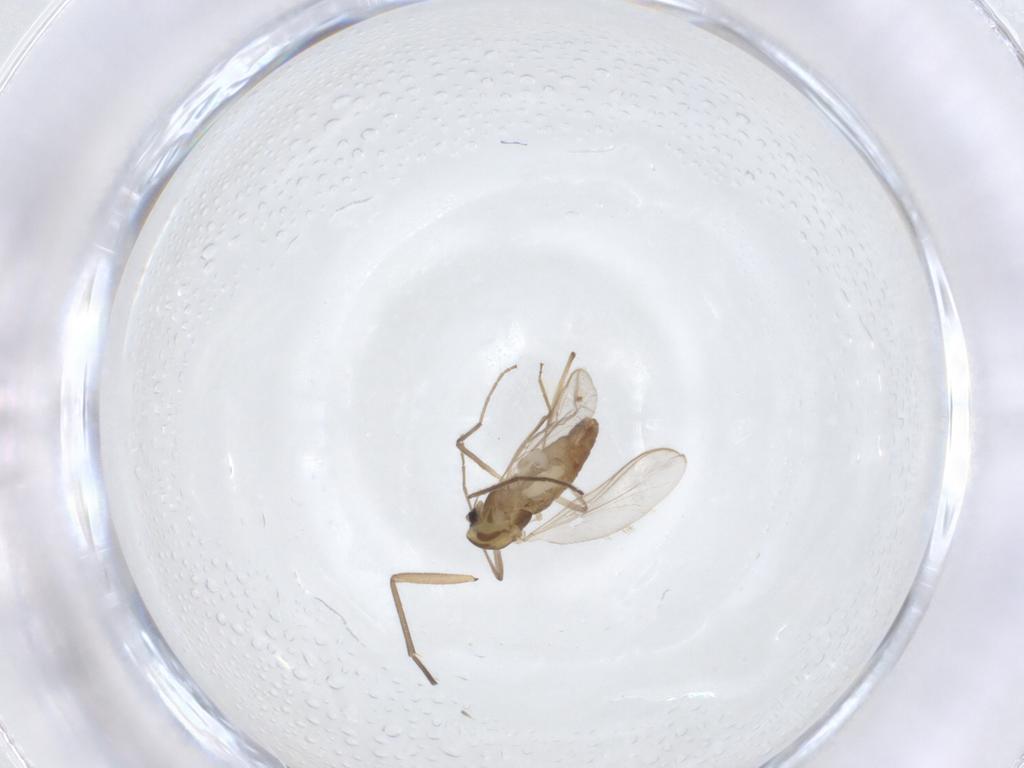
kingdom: Animalia
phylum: Arthropoda
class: Insecta
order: Diptera
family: Chironomidae
